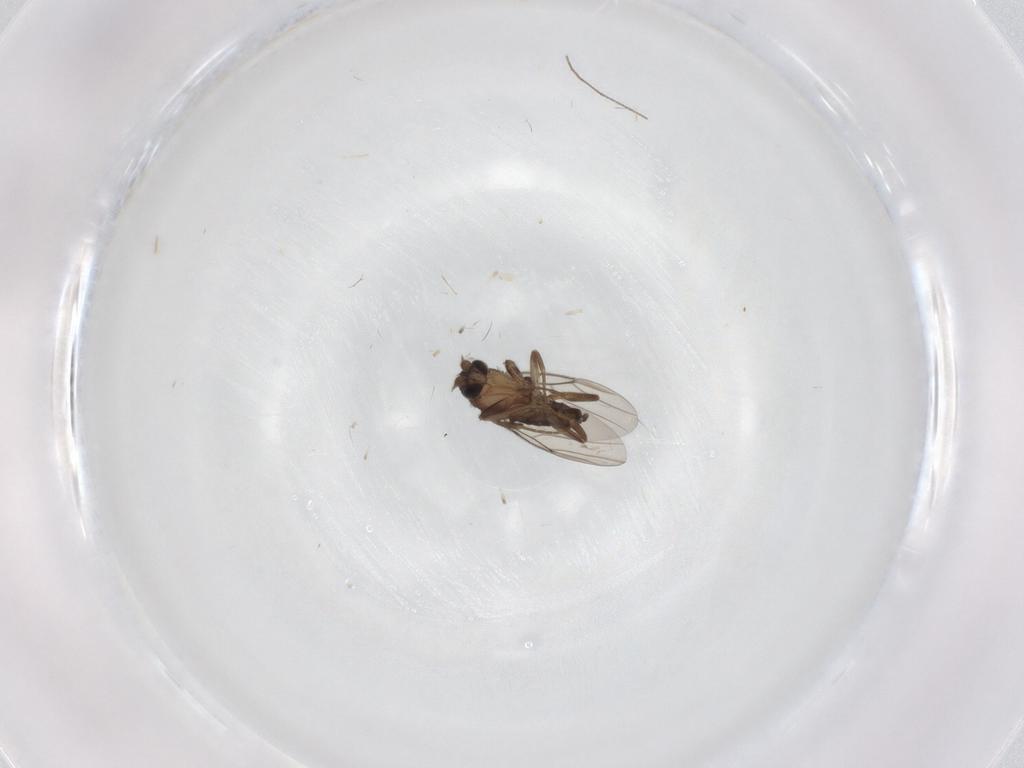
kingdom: Animalia
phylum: Arthropoda
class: Insecta
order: Diptera
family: Phoridae
